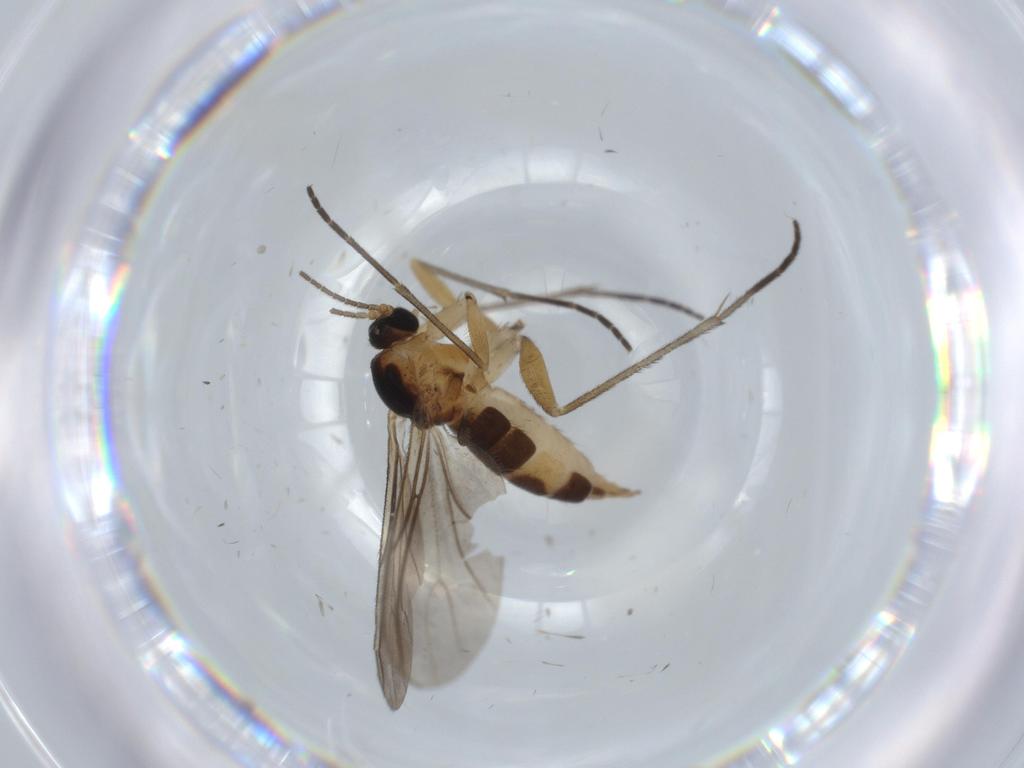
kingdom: Animalia
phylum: Arthropoda
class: Insecta
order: Diptera
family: Sciaridae
